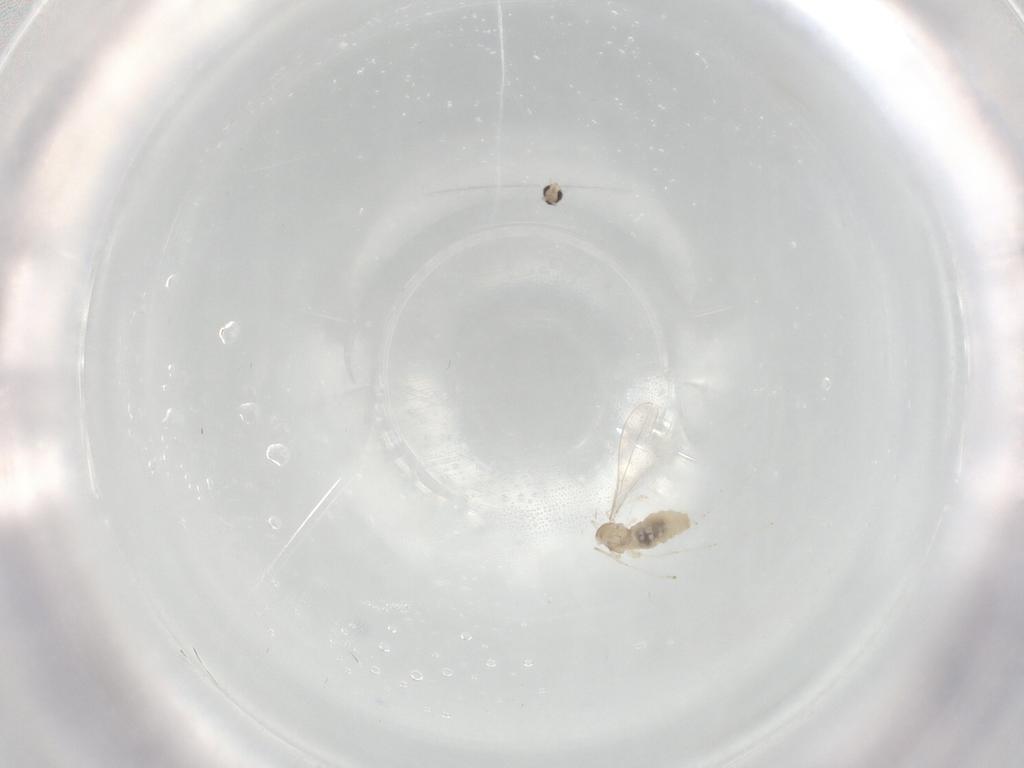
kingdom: Animalia
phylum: Arthropoda
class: Insecta
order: Diptera
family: Cecidomyiidae
